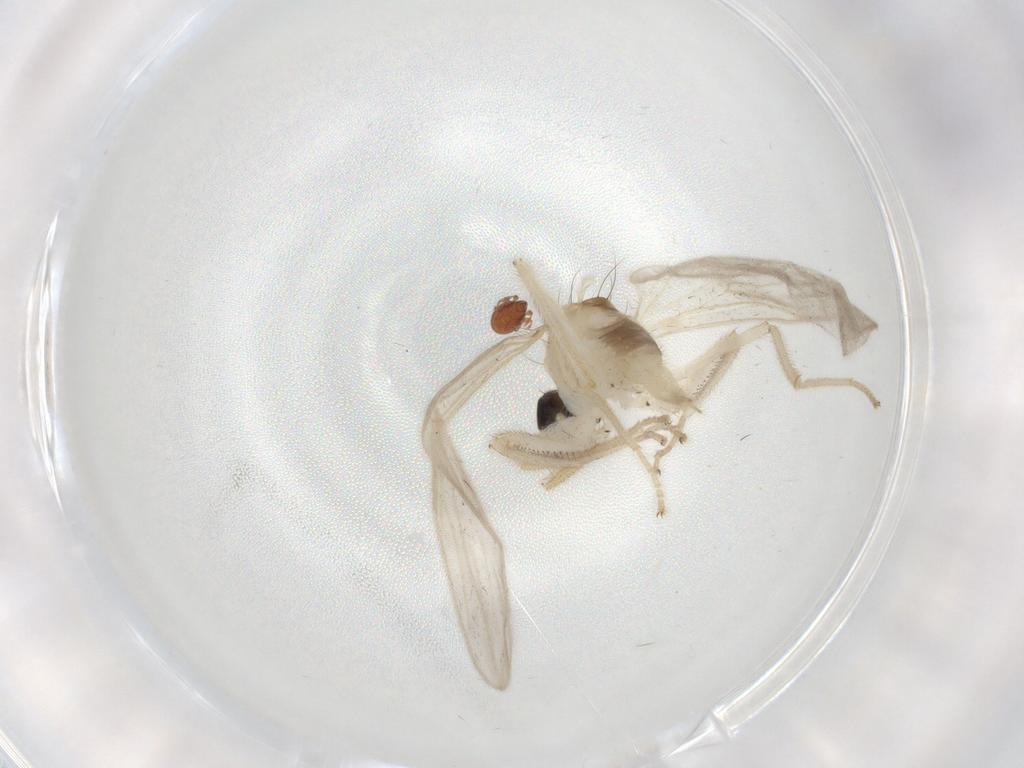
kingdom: Animalia
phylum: Arthropoda
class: Insecta
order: Diptera
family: Hybotidae
